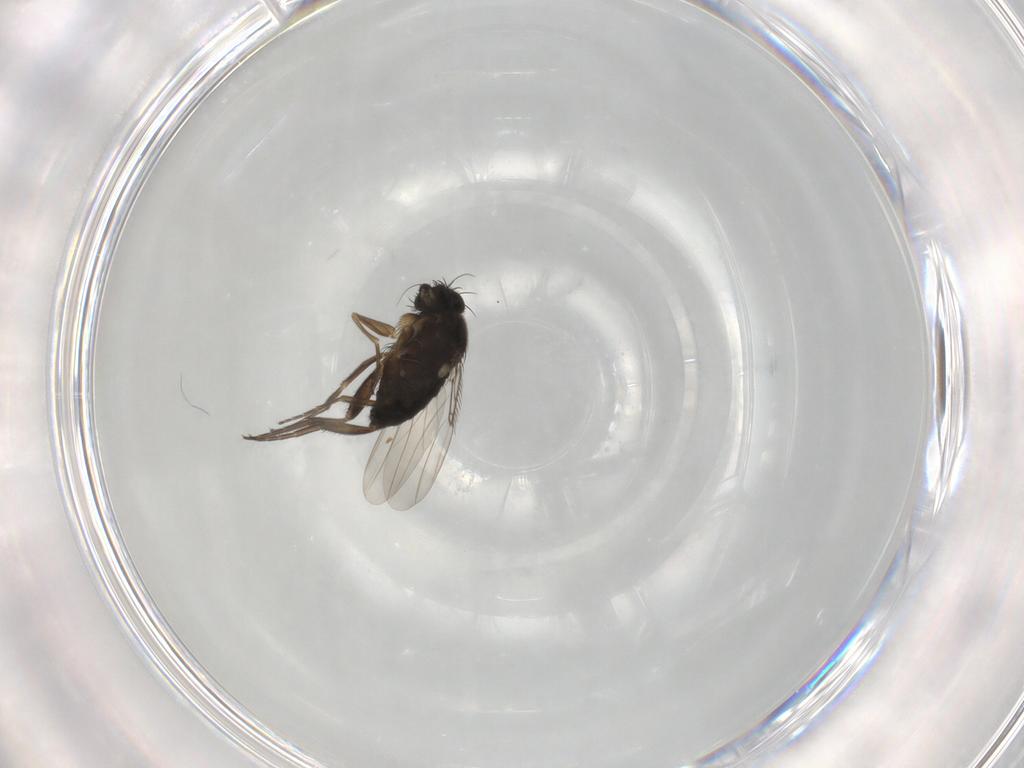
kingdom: Animalia
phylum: Arthropoda
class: Insecta
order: Diptera
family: Phoridae
